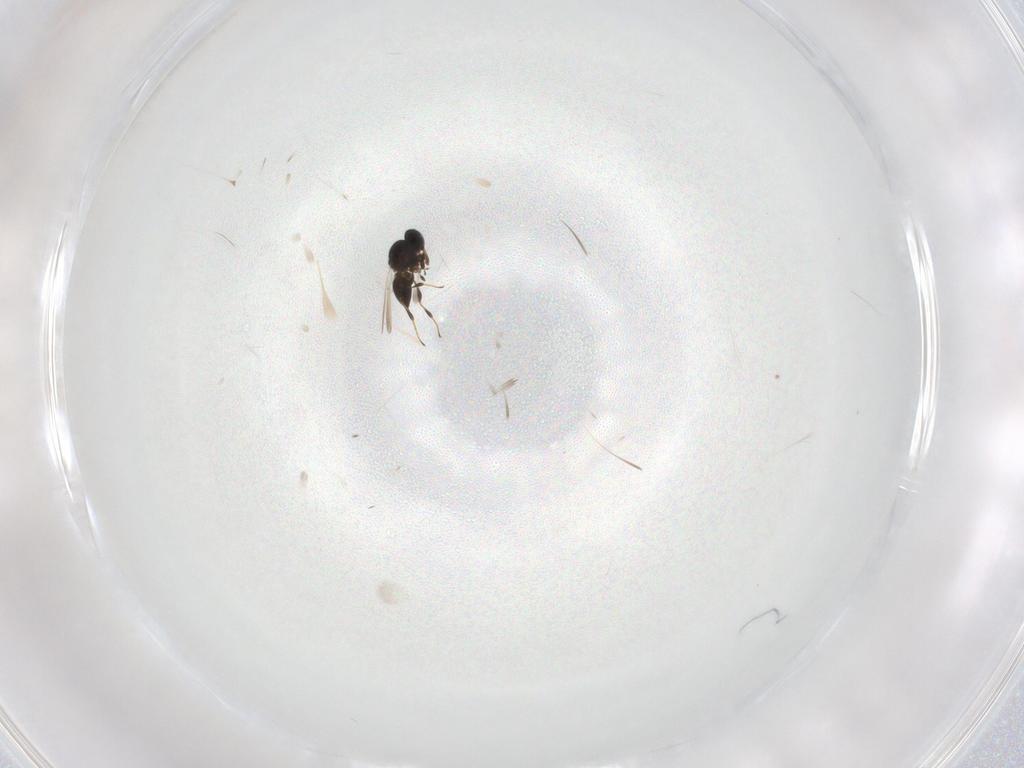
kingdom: Animalia
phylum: Arthropoda
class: Insecta
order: Hymenoptera
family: Platygastridae
